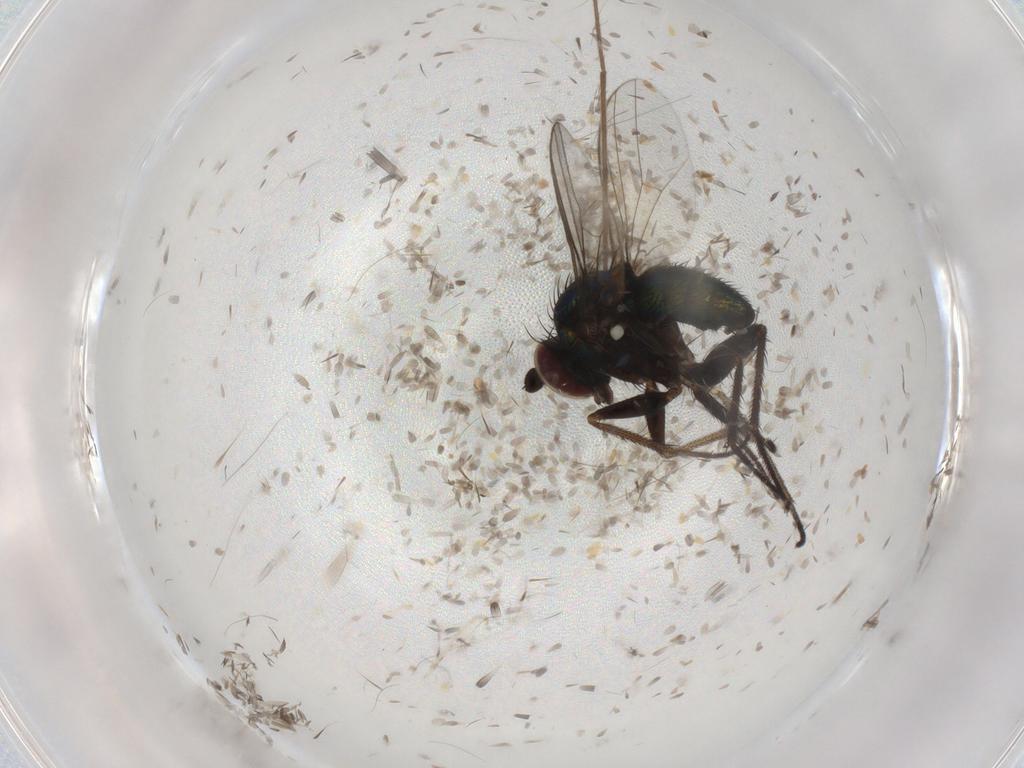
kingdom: Animalia
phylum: Arthropoda
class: Insecta
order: Diptera
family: Dolichopodidae
